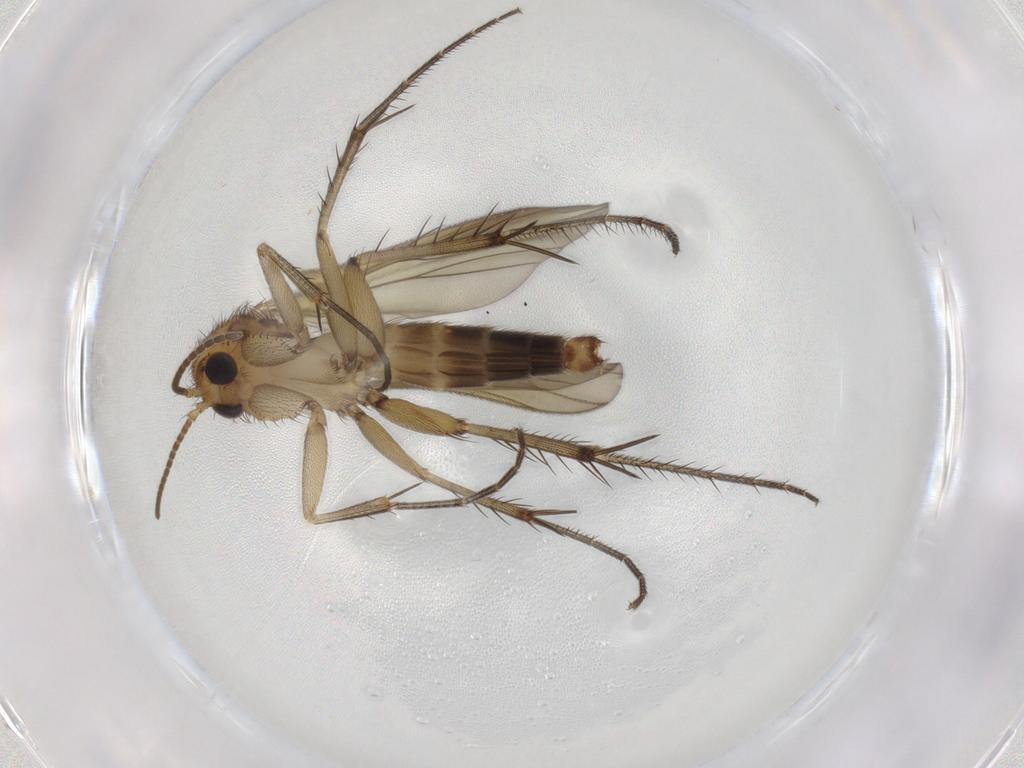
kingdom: Animalia
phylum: Arthropoda
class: Insecta
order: Diptera
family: Mycetophilidae
